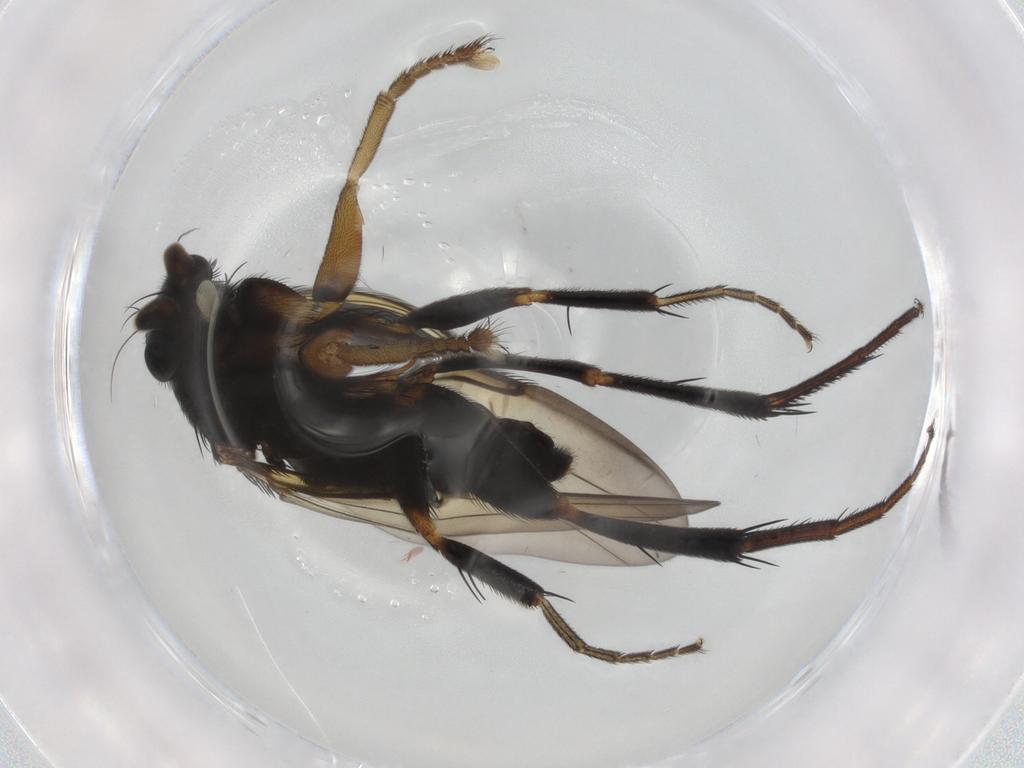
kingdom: Animalia
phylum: Arthropoda
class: Insecta
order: Diptera
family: Phoridae
